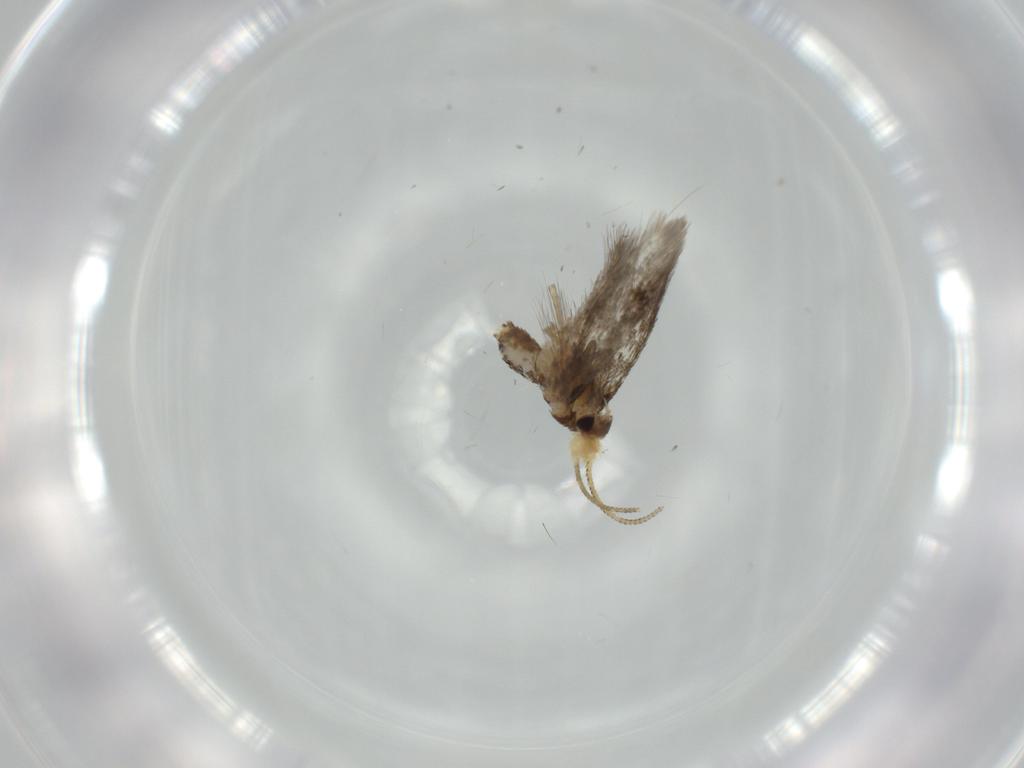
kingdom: Animalia
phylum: Arthropoda
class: Insecta
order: Lepidoptera
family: Nepticulidae
